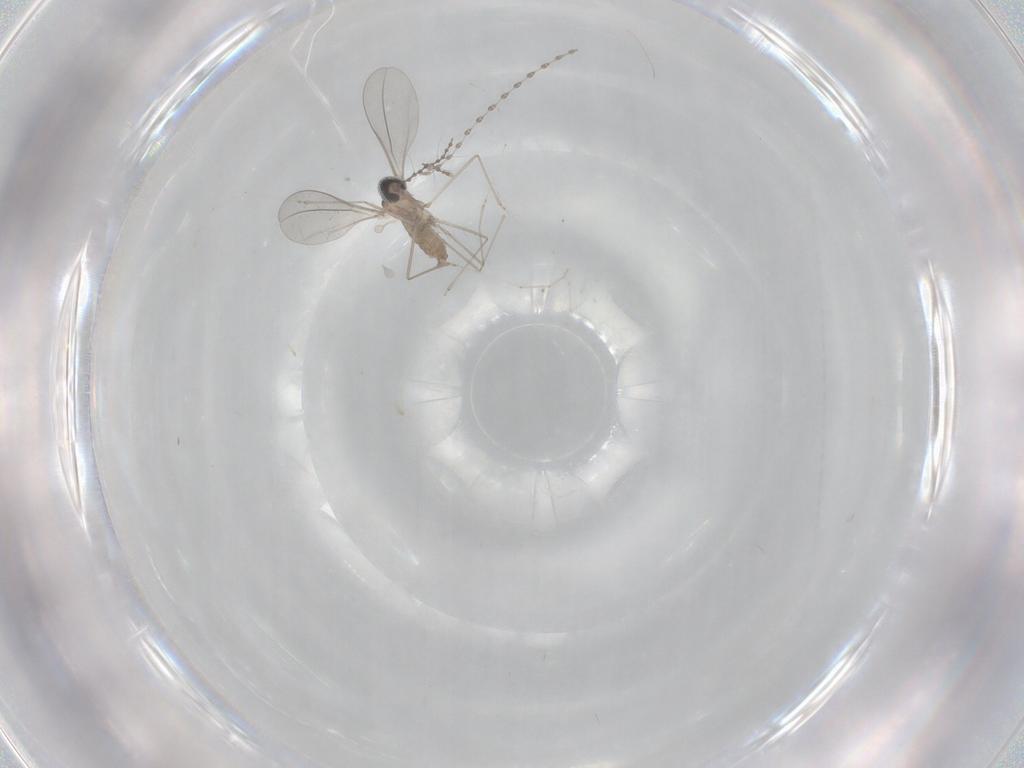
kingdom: Animalia
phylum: Arthropoda
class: Insecta
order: Diptera
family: Cecidomyiidae
